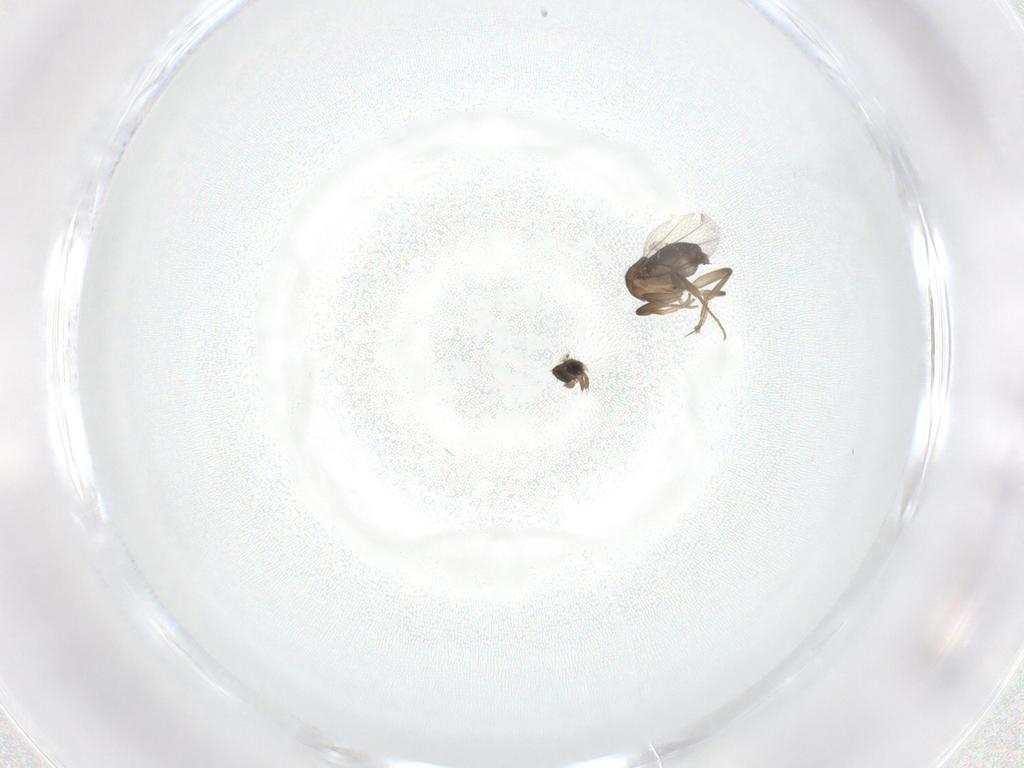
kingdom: Animalia
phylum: Arthropoda
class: Insecta
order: Diptera
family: Phoridae
